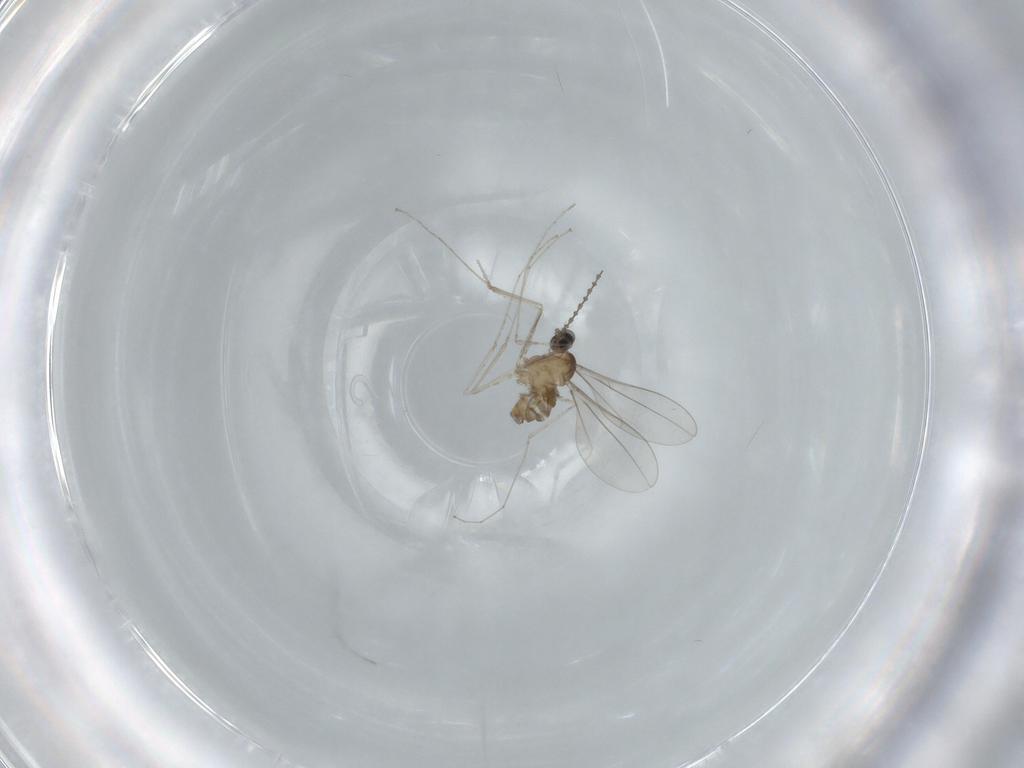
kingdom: Animalia
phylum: Arthropoda
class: Insecta
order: Diptera
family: Cecidomyiidae
